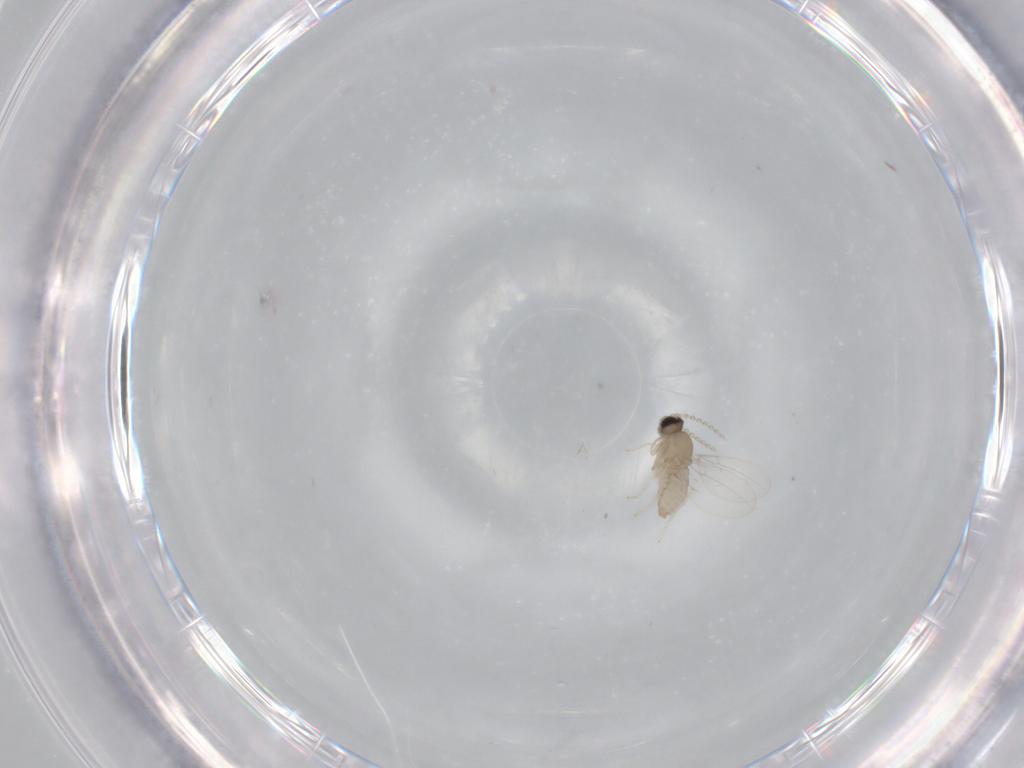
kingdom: Animalia
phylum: Arthropoda
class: Insecta
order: Diptera
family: Cecidomyiidae
